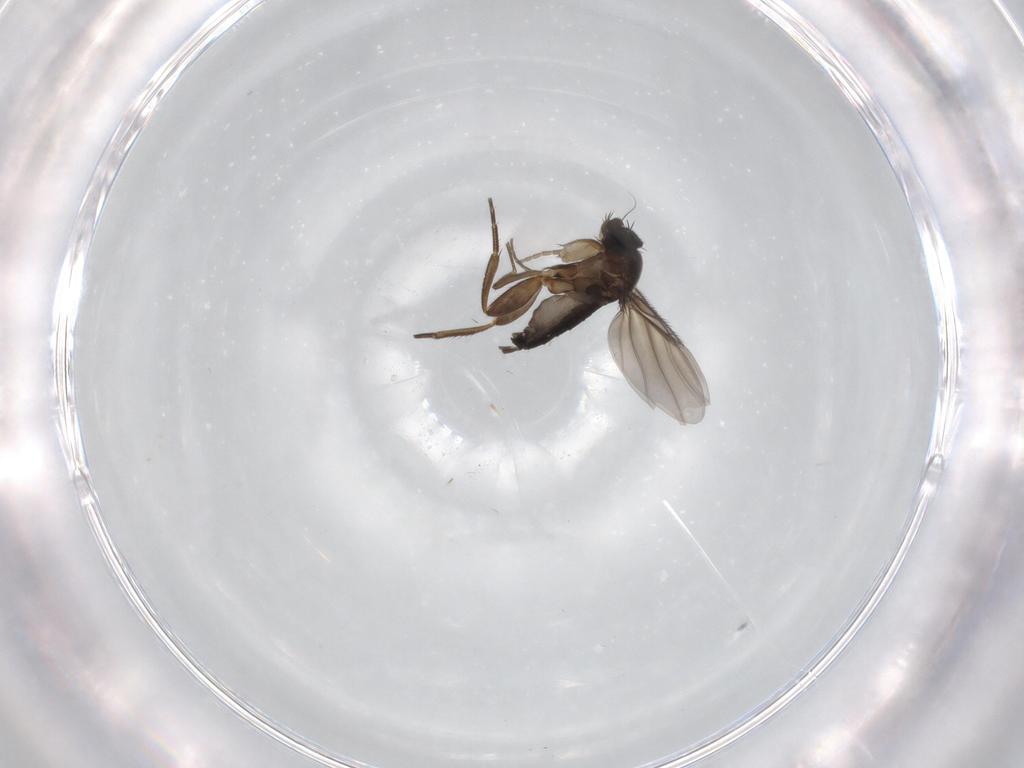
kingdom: Animalia
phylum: Arthropoda
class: Insecta
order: Diptera
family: Phoridae
